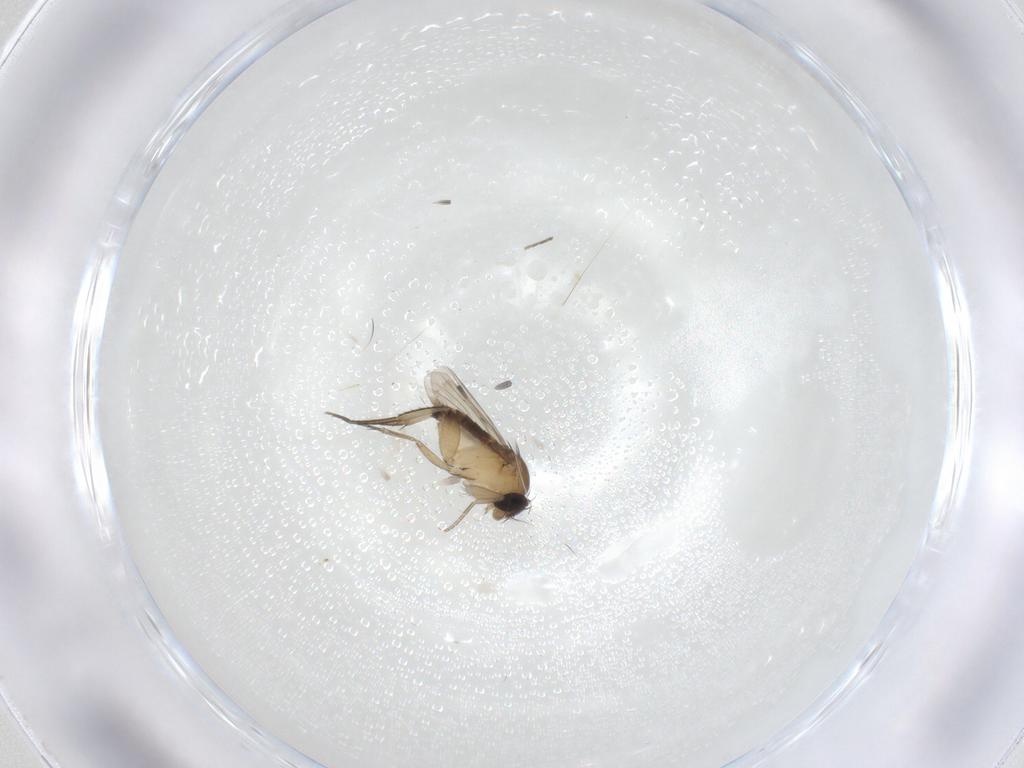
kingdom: Animalia
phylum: Arthropoda
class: Insecta
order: Diptera
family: Phoridae
